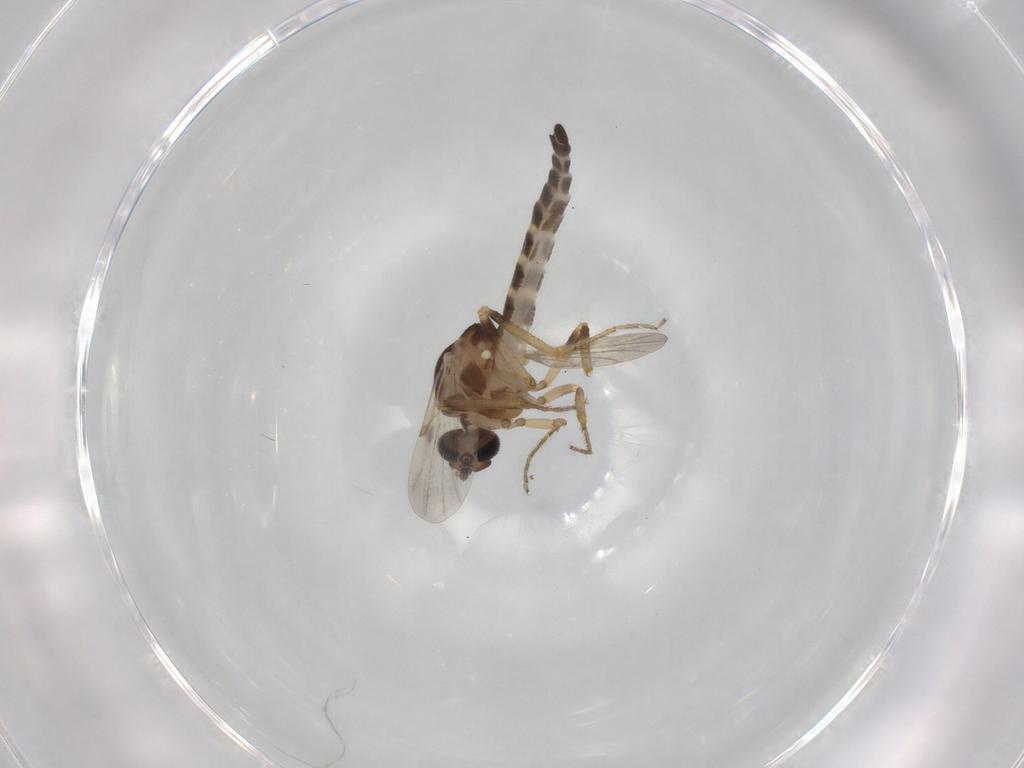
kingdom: Animalia
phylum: Arthropoda
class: Insecta
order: Diptera
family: Ceratopogonidae
